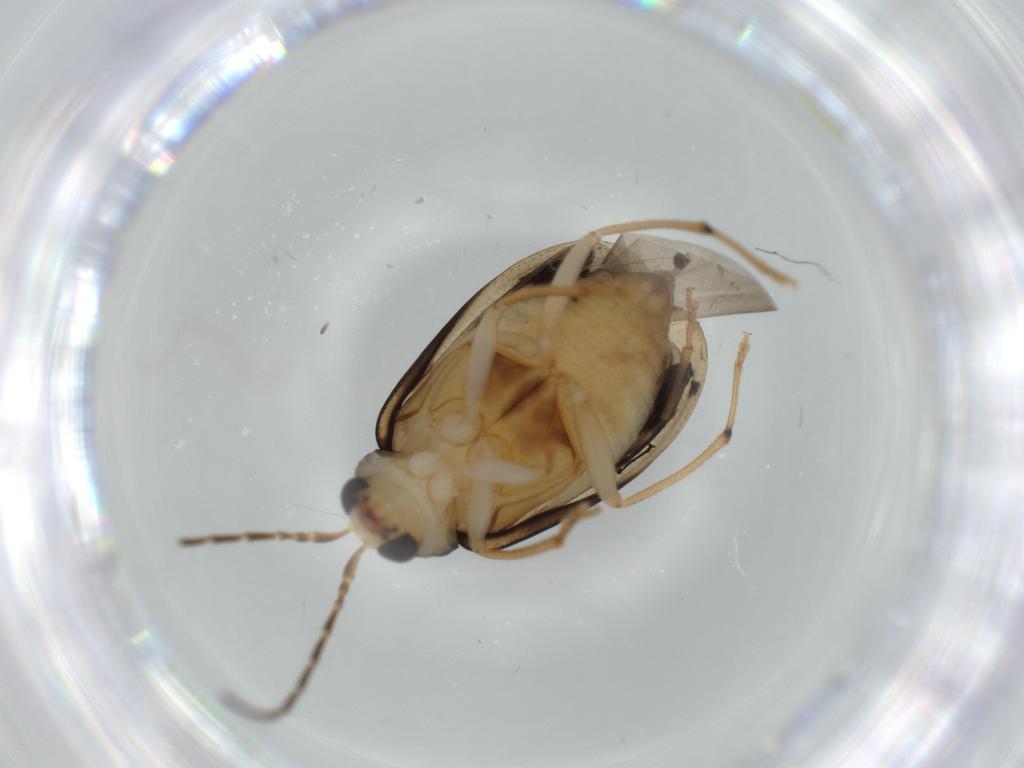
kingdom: Animalia
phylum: Arthropoda
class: Insecta
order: Coleoptera
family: Chrysomelidae
